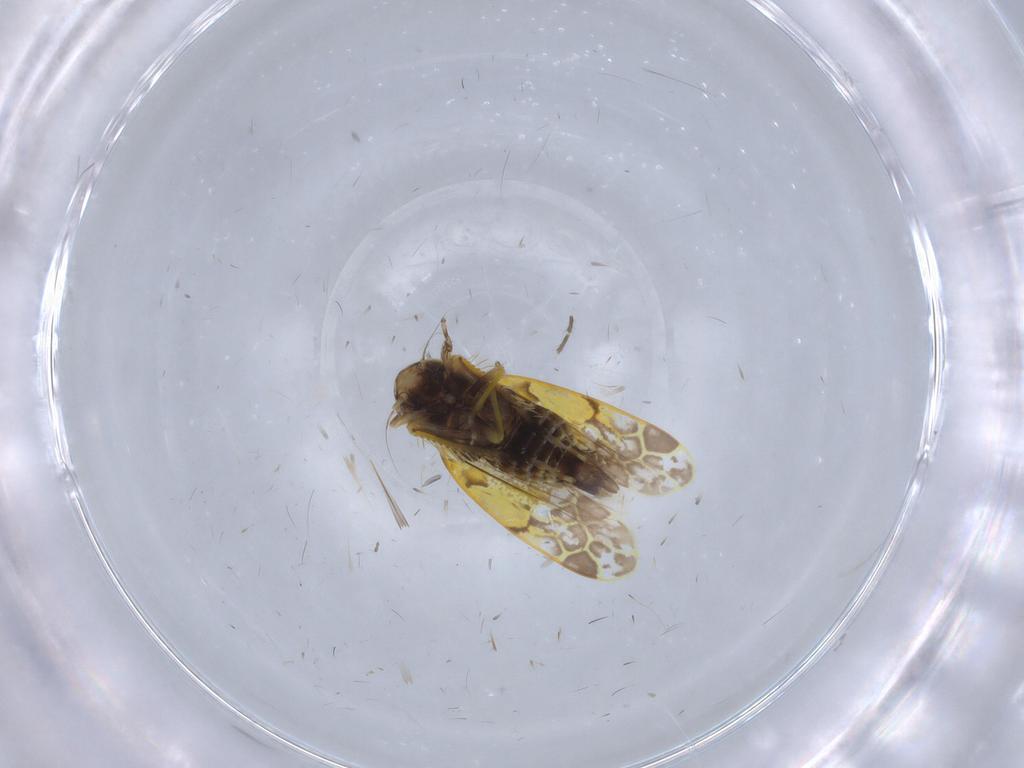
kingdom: Animalia
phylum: Arthropoda
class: Insecta
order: Hemiptera
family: Cicadellidae
